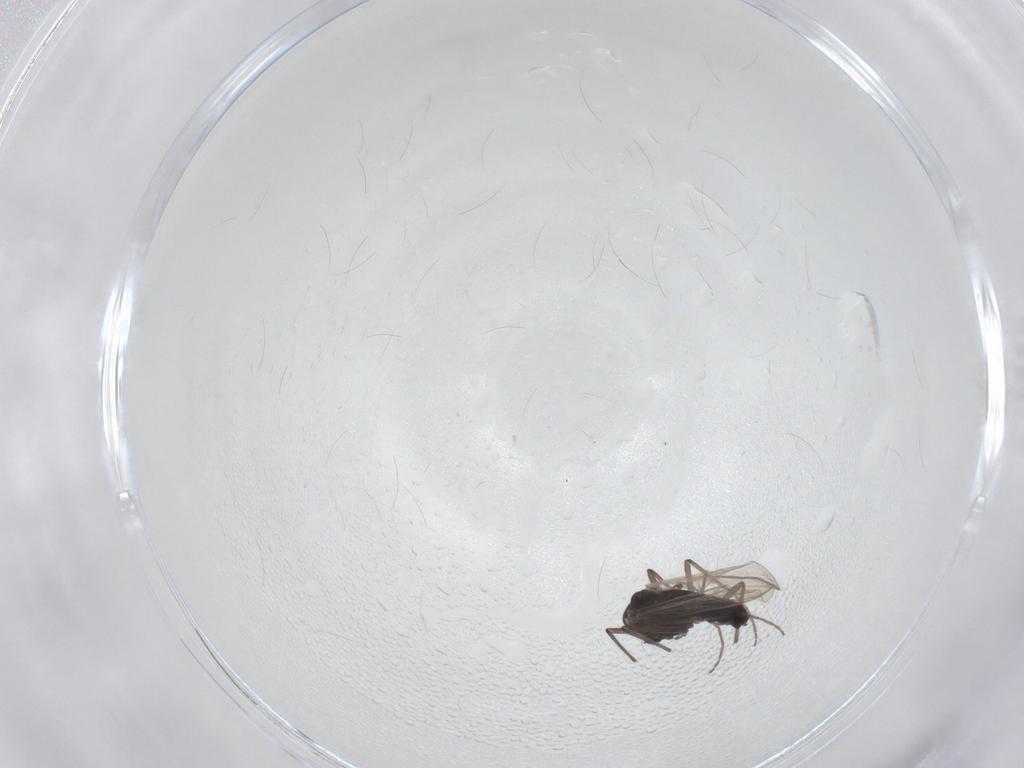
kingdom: Animalia
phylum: Arthropoda
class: Insecta
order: Diptera
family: Chironomidae
